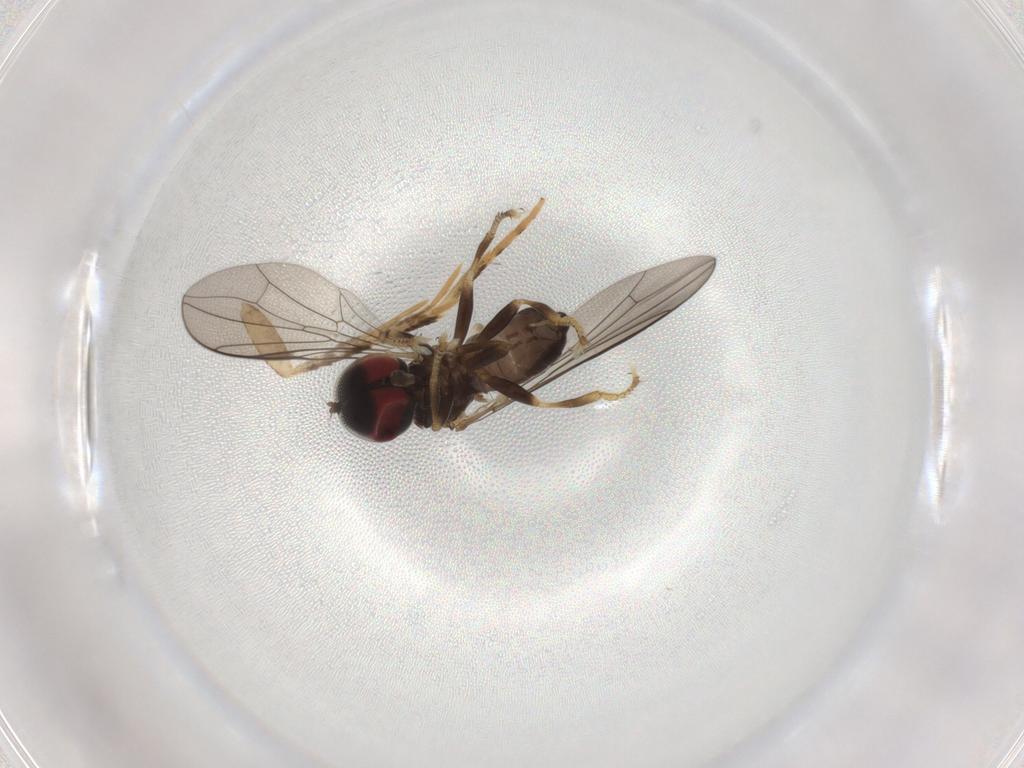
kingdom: Animalia
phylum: Arthropoda
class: Insecta
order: Diptera
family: Pipunculidae
